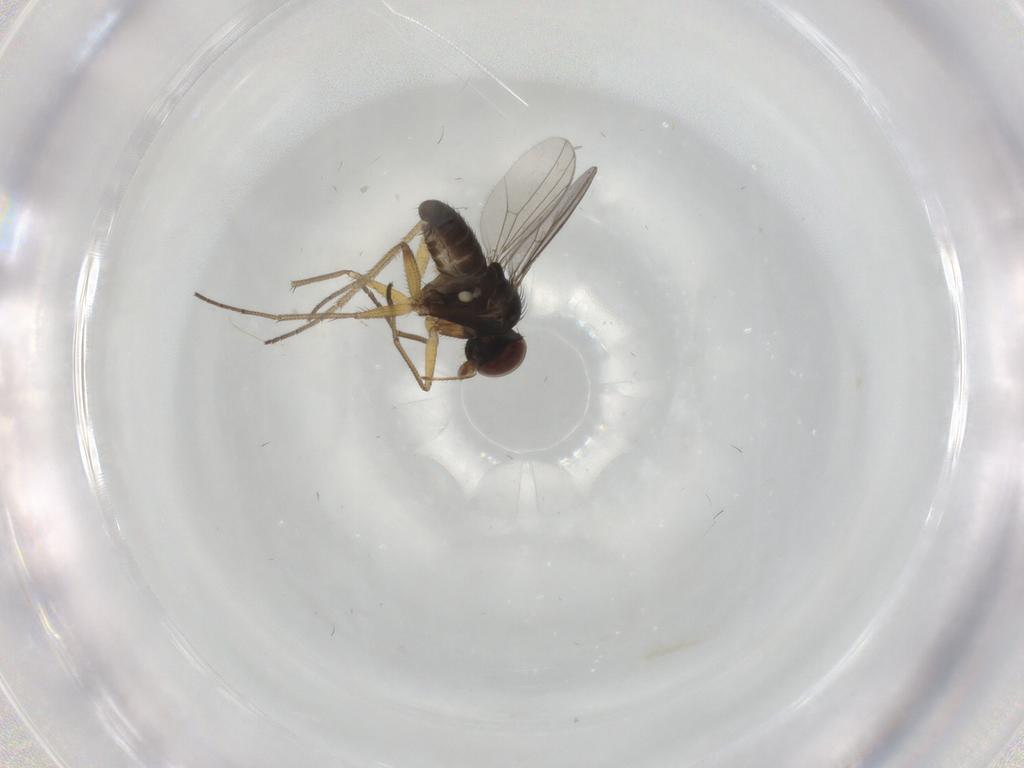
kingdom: Animalia
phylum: Arthropoda
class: Insecta
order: Diptera
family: Dolichopodidae
